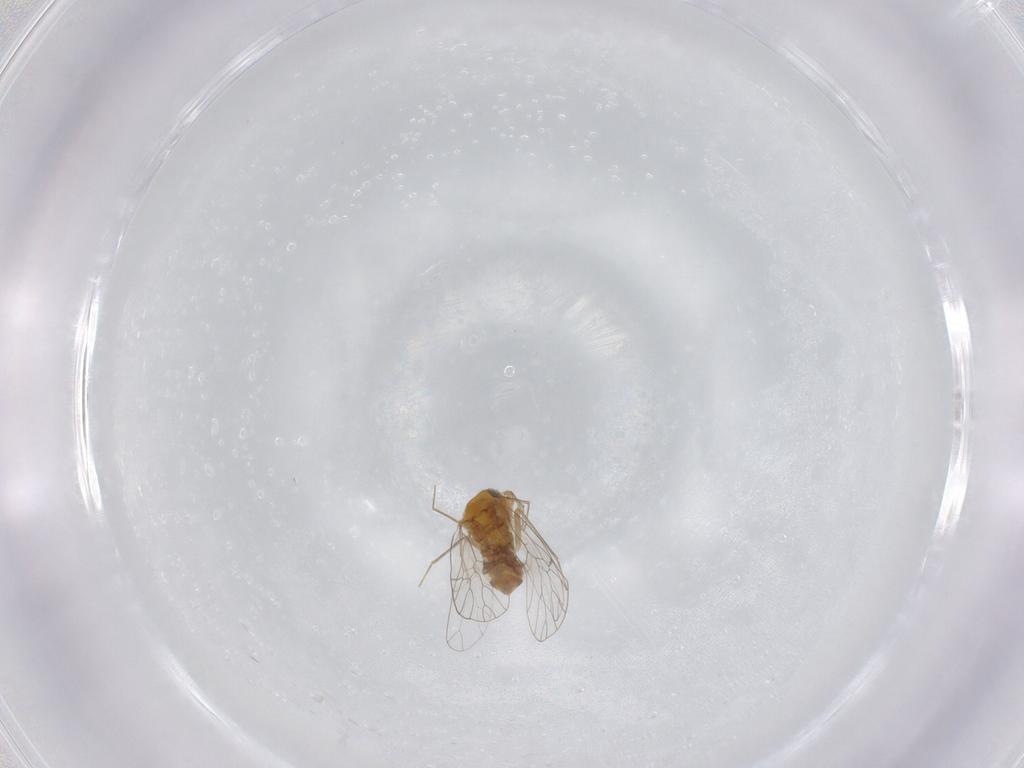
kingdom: Animalia
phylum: Arthropoda
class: Insecta
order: Psocodea
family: Prionoglarididae
